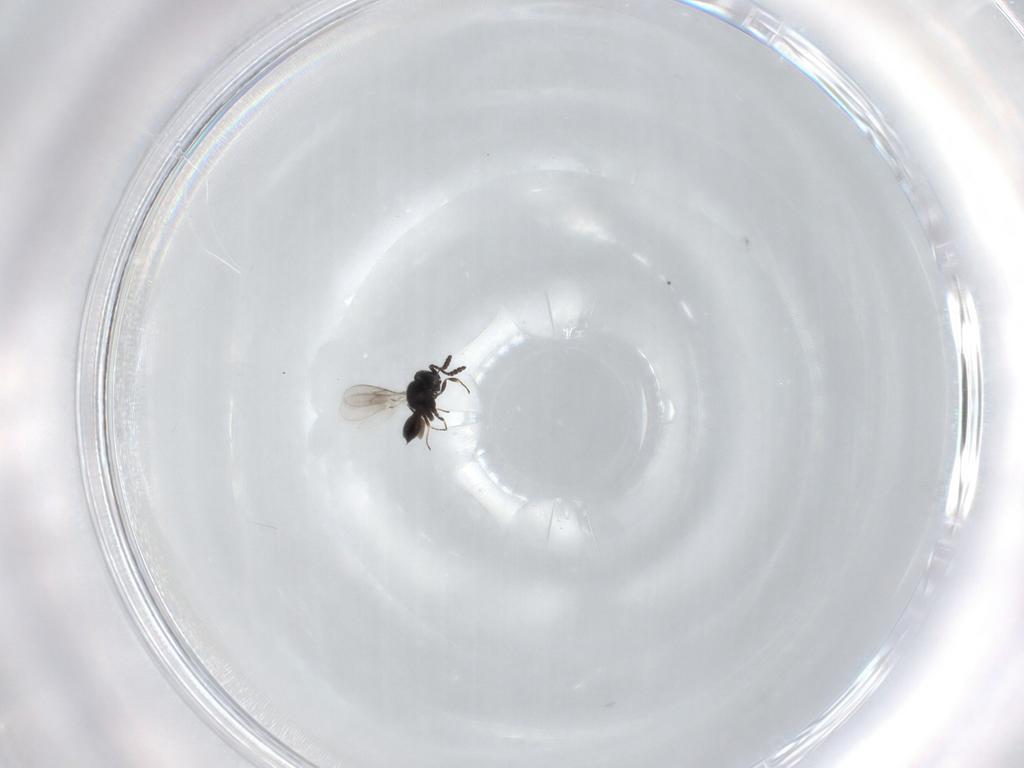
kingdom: Animalia
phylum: Arthropoda
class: Insecta
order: Hymenoptera
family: Scelionidae
